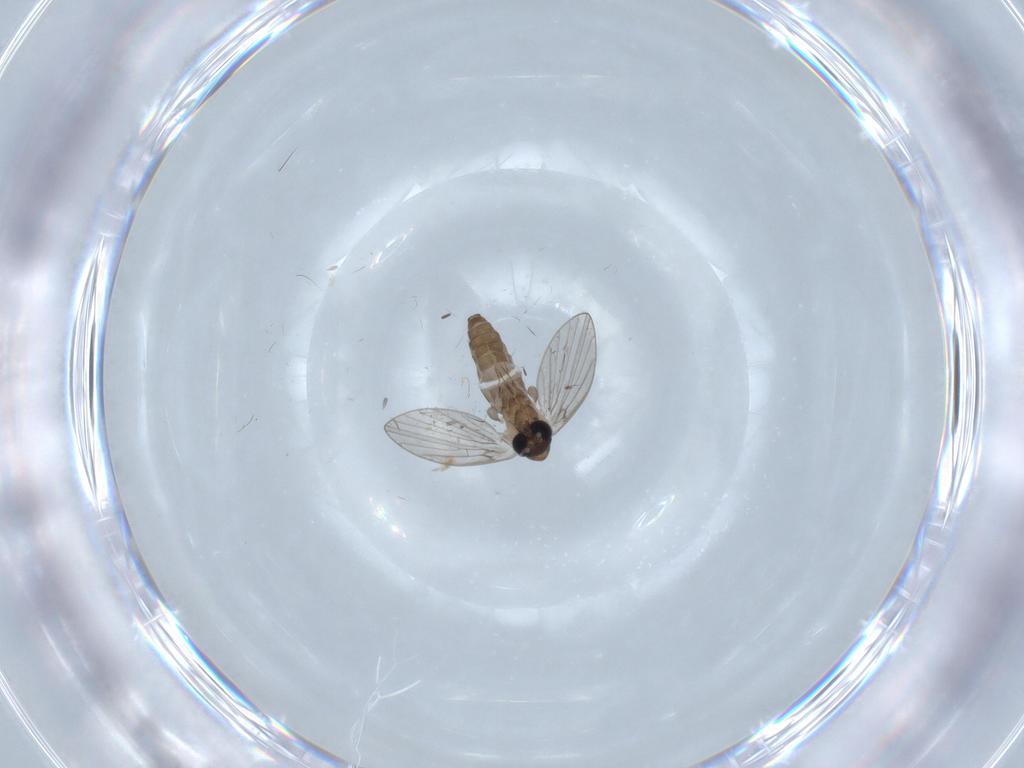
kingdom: Animalia
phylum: Arthropoda
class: Insecta
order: Diptera
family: Psychodidae
